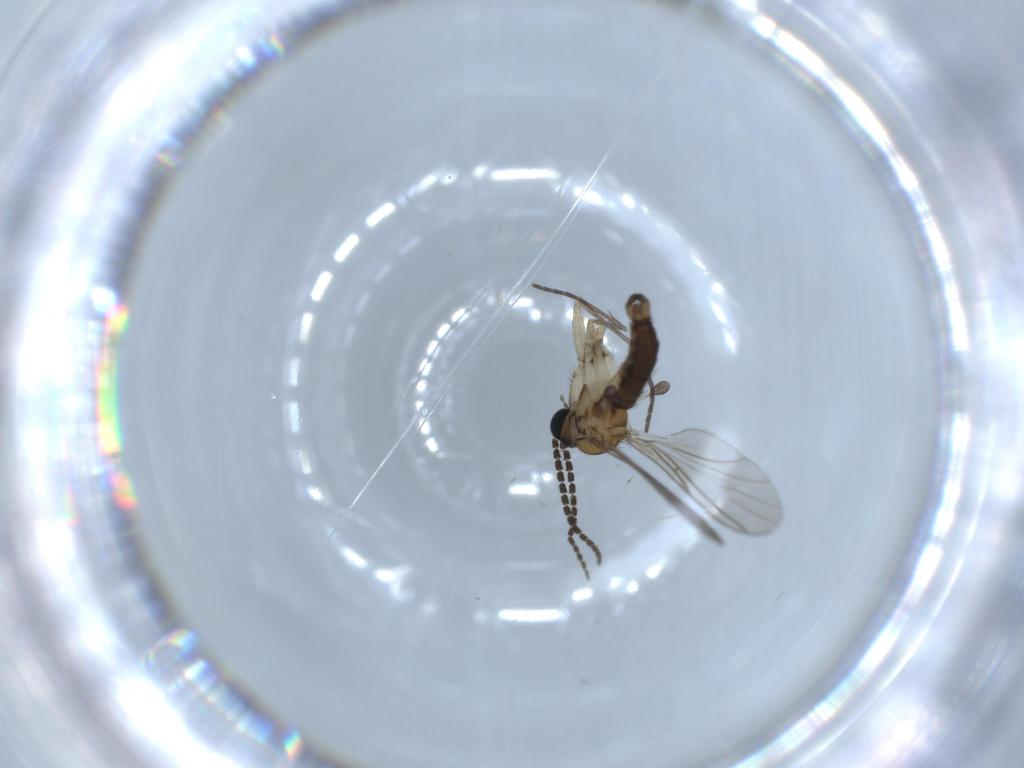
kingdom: Animalia
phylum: Arthropoda
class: Insecta
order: Diptera
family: Sciaridae
